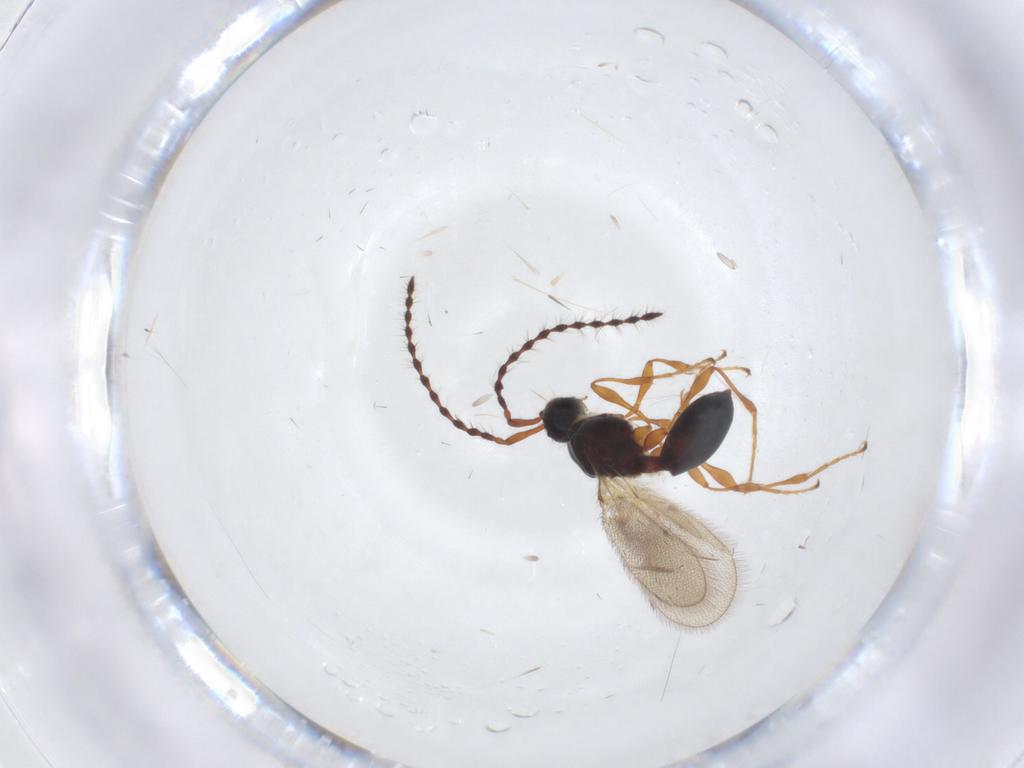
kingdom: Animalia
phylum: Arthropoda
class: Insecta
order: Hymenoptera
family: Diapriidae
